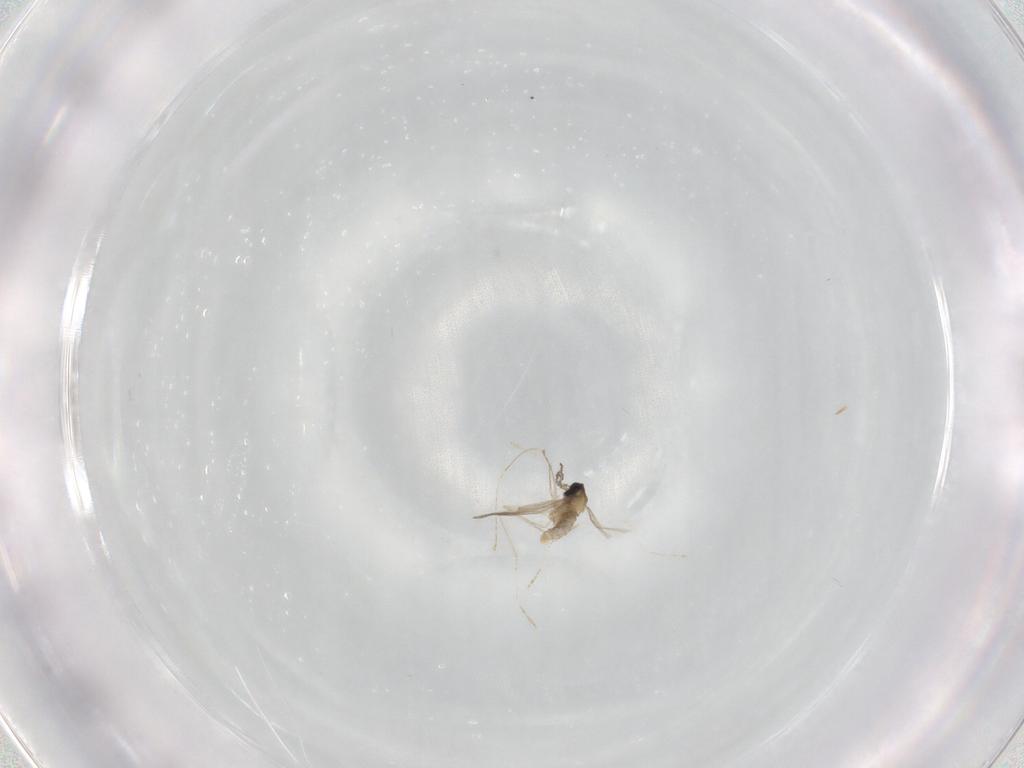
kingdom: Animalia
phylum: Arthropoda
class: Insecta
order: Diptera
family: Cecidomyiidae
